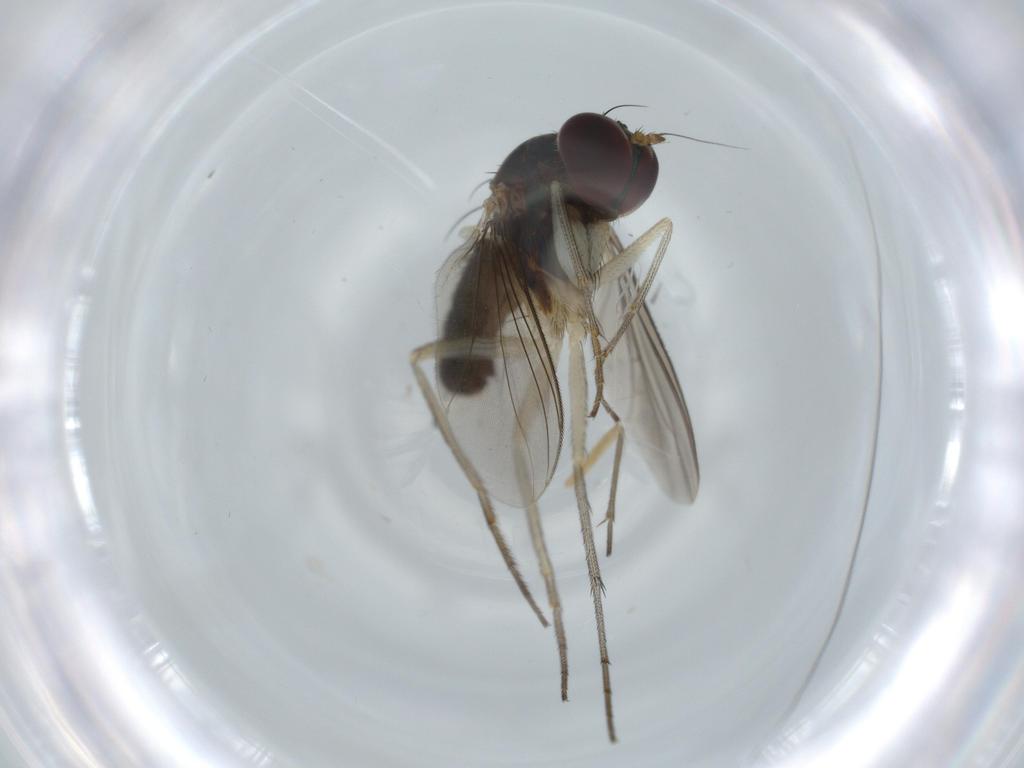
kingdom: Animalia
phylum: Arthropoda
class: Insecta
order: Diptera
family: Dolichopodidae
